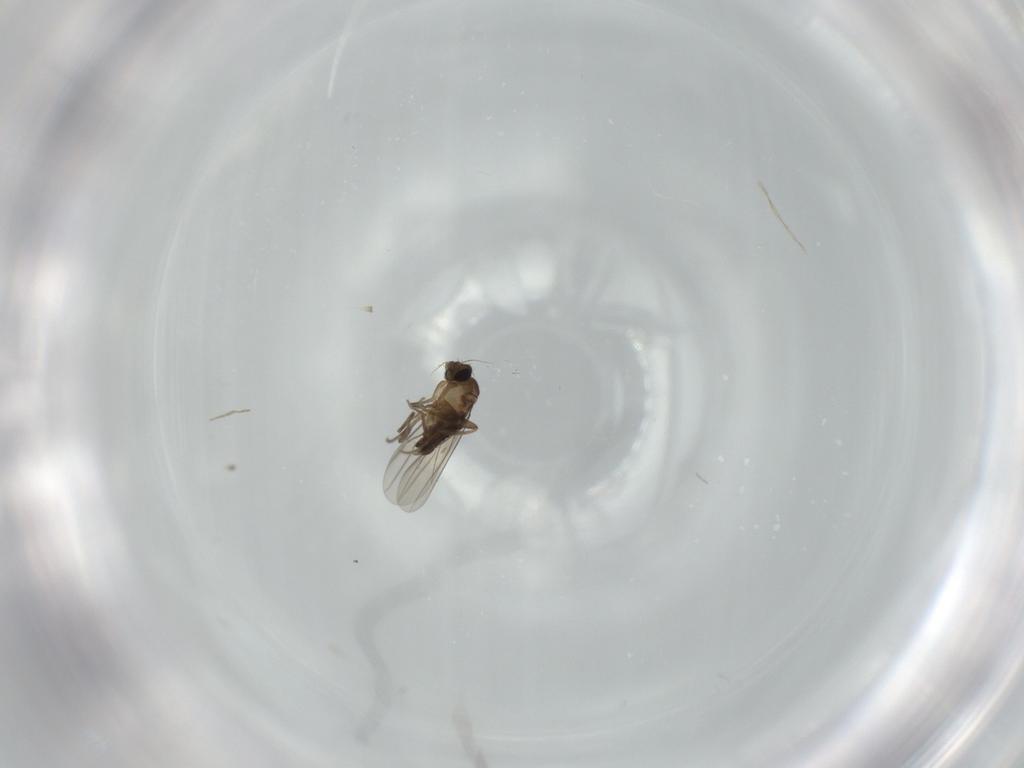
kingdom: Animalia
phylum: Arthropoda
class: Insecta
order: Diptera
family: Phoridae
